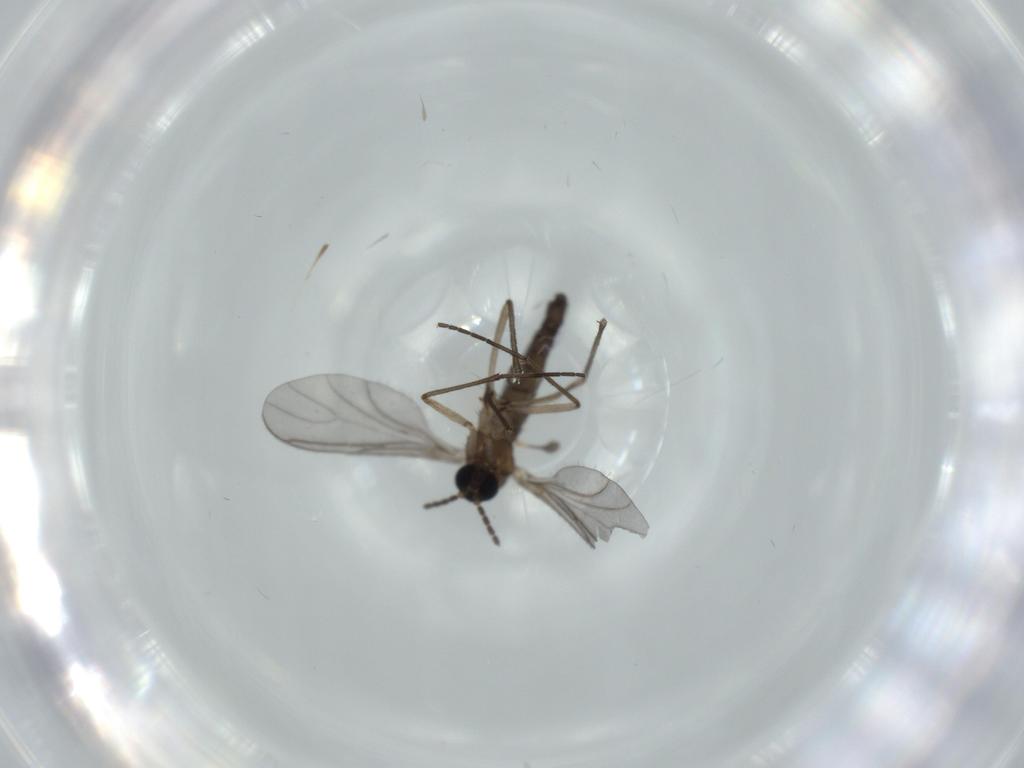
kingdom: Animalia
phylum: Arthropoda
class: Insecta
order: Diptera
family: Sciaridae
